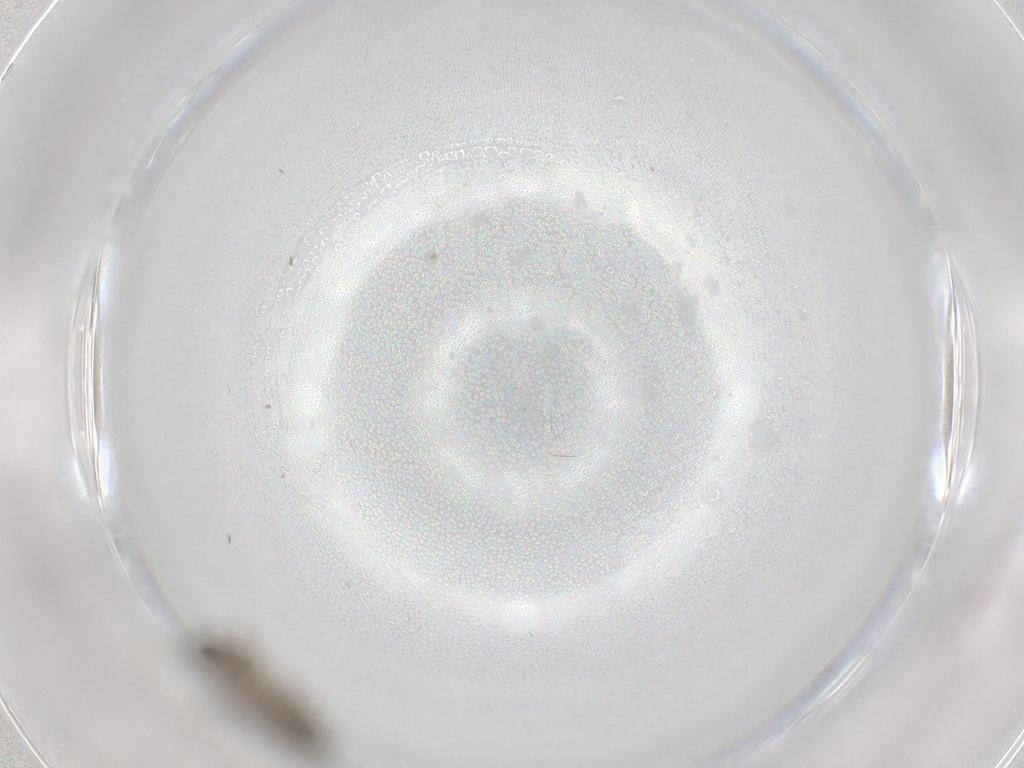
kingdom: Animalia
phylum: Arthropoda
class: Insecta
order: Diptera
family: Phoridae
